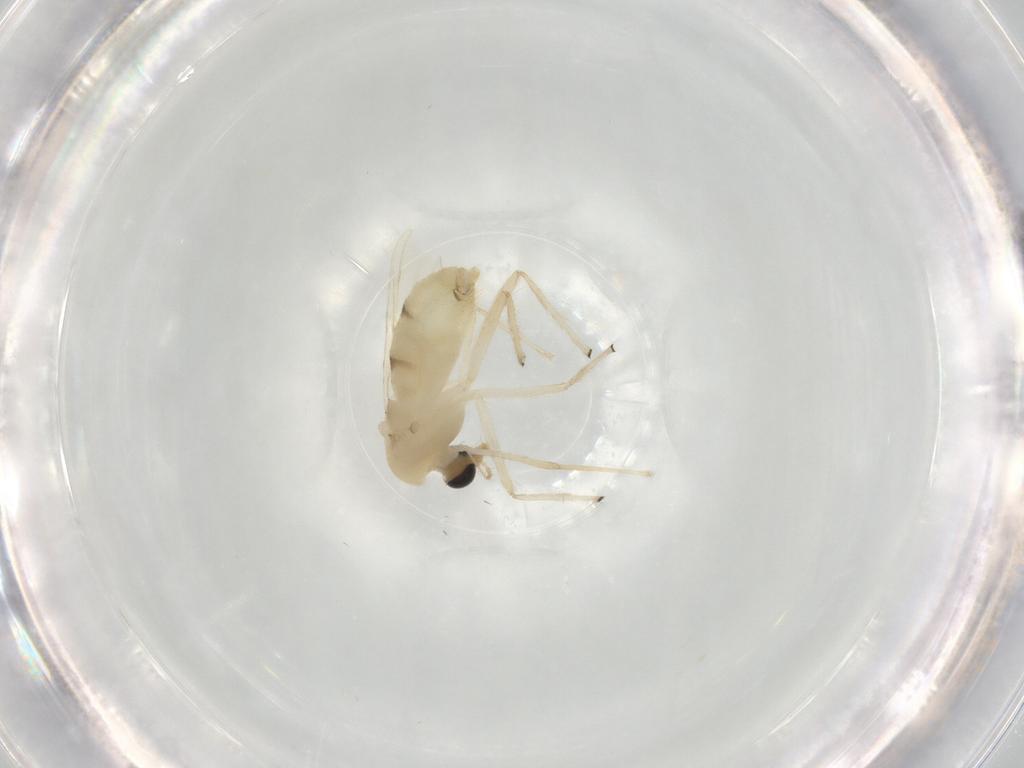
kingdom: Animalia
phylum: Arthropoda
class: Insecta
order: Diptera
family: Chironomidae
